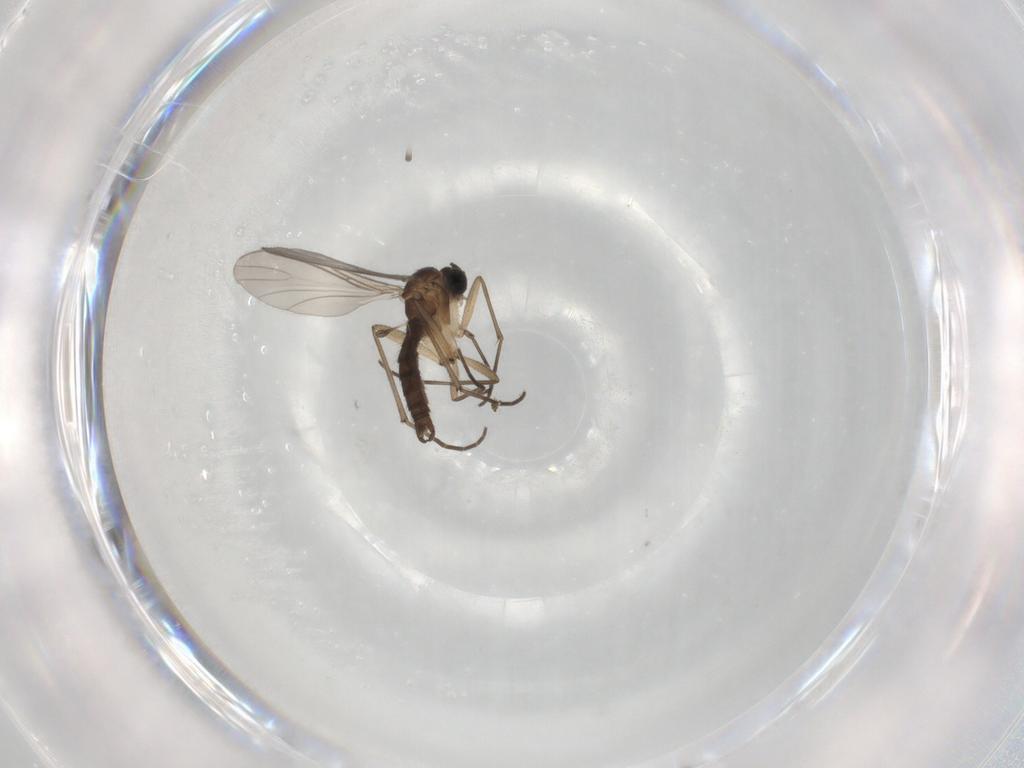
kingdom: Animalia
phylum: Arthropoda
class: Insecta
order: Diptera
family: Phoridae
